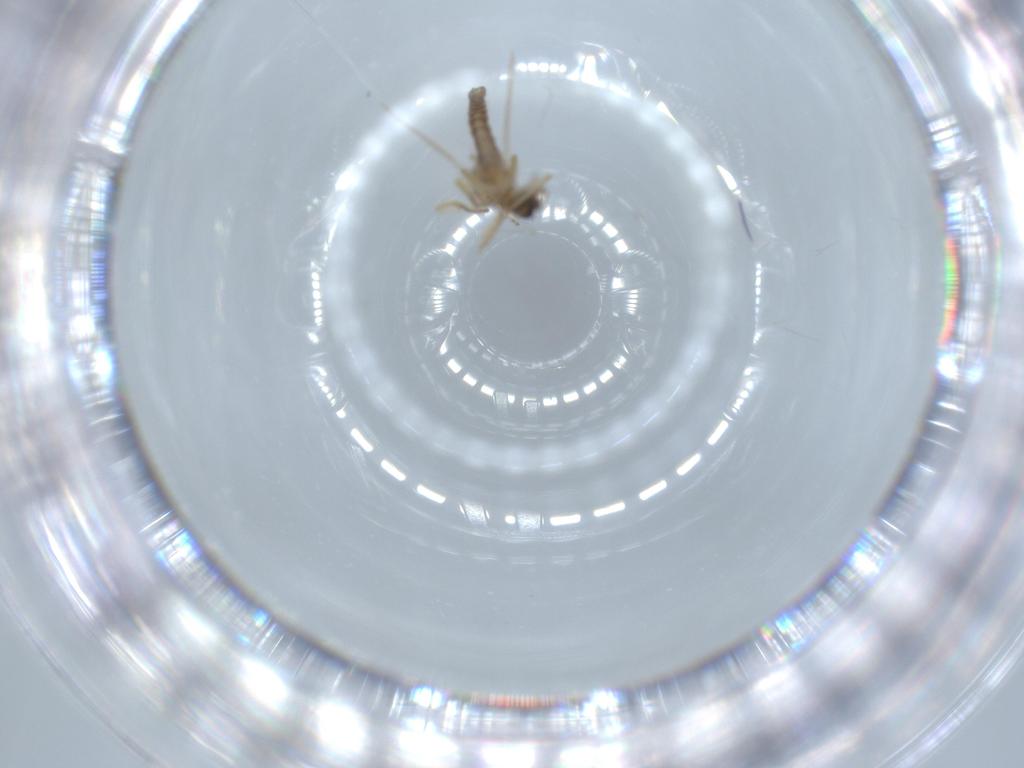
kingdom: Animalia
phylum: Arthropoda
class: Insecta
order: Diptera
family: Ceratopogonidae
